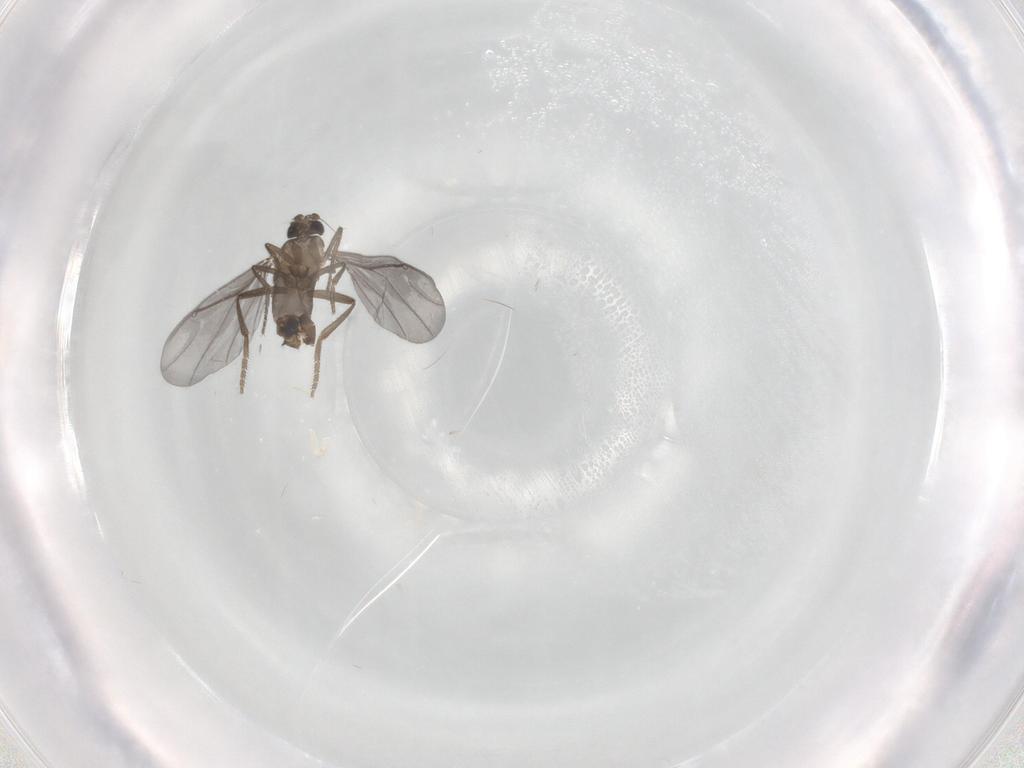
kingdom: Animalia
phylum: Arthropoda
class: Insecta
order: Diptera
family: Phoridae
